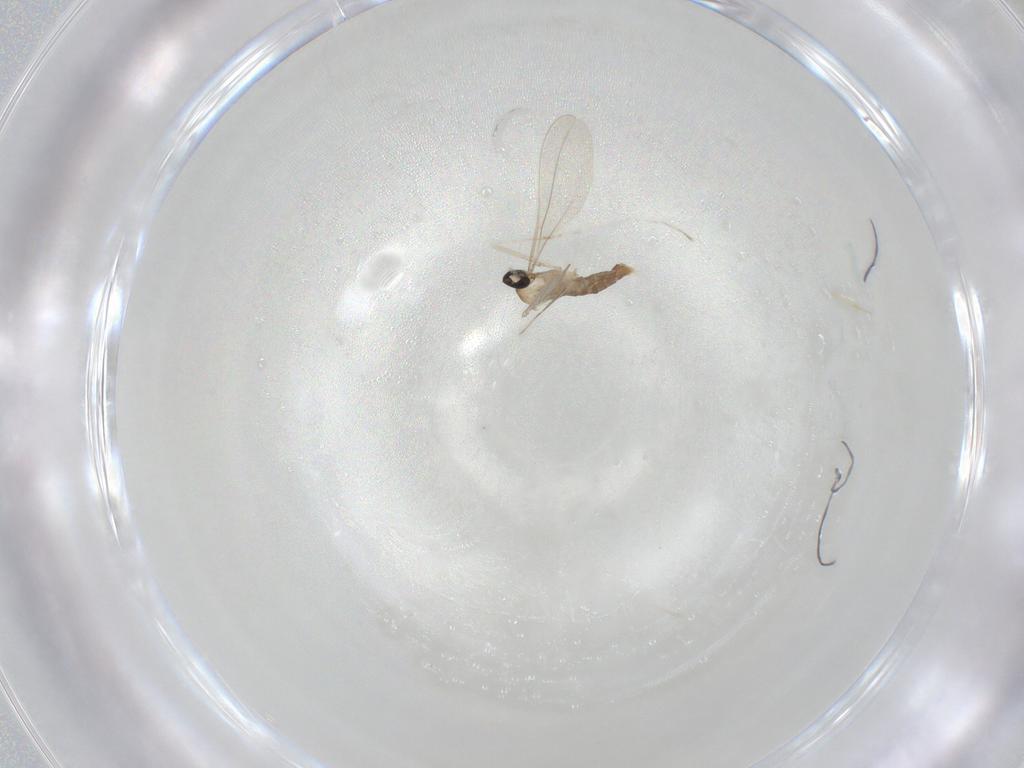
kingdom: Animalia
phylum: Arthropoda
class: Insecta
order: Diptera
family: Cecidomyiidae
